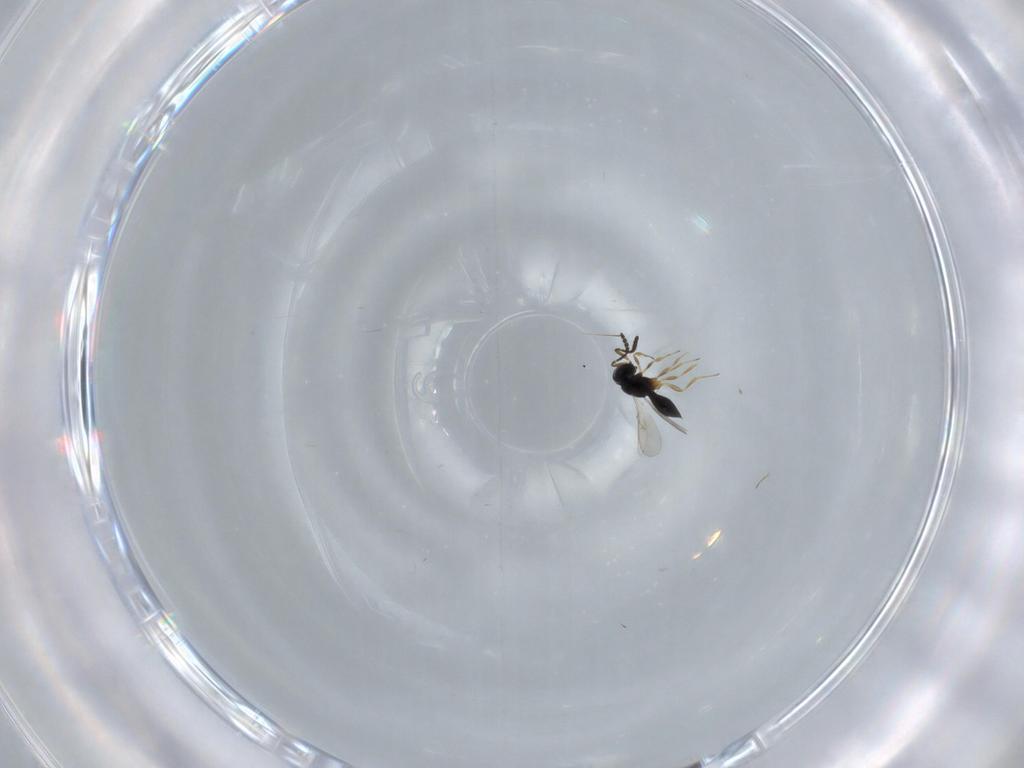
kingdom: Animalia
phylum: Arthropoda
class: Insecta
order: Hymenoptera
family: Scelionidae
